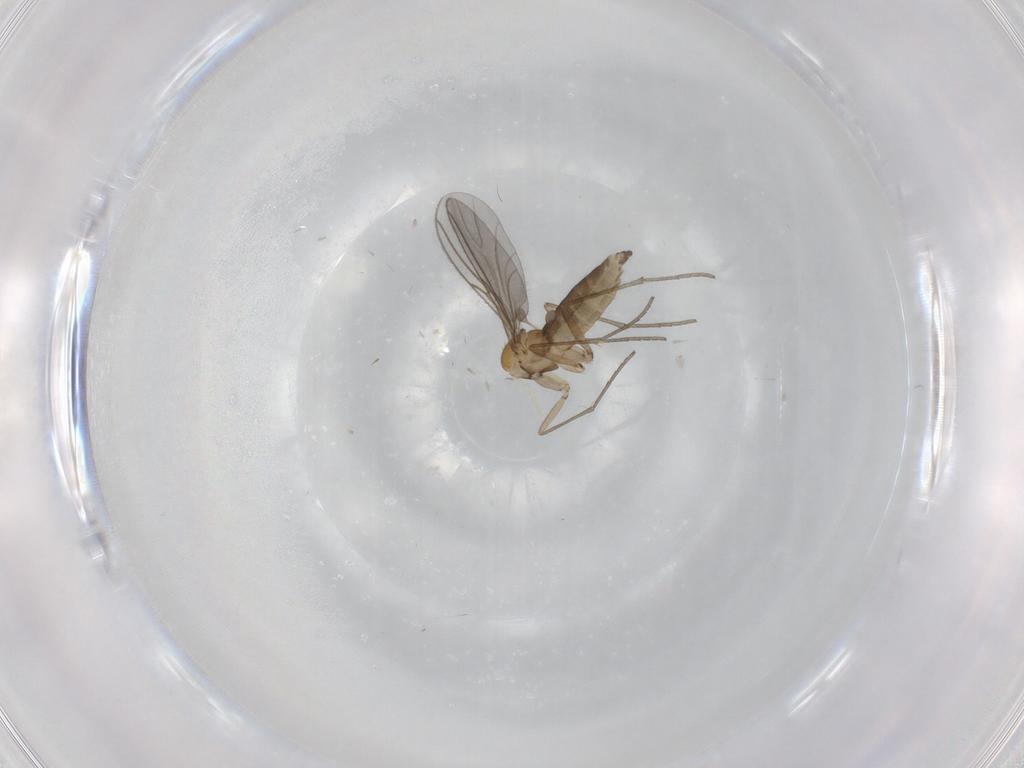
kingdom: Animalia
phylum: Arthropoda
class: Insecta
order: Diptera
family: Sciaridae
